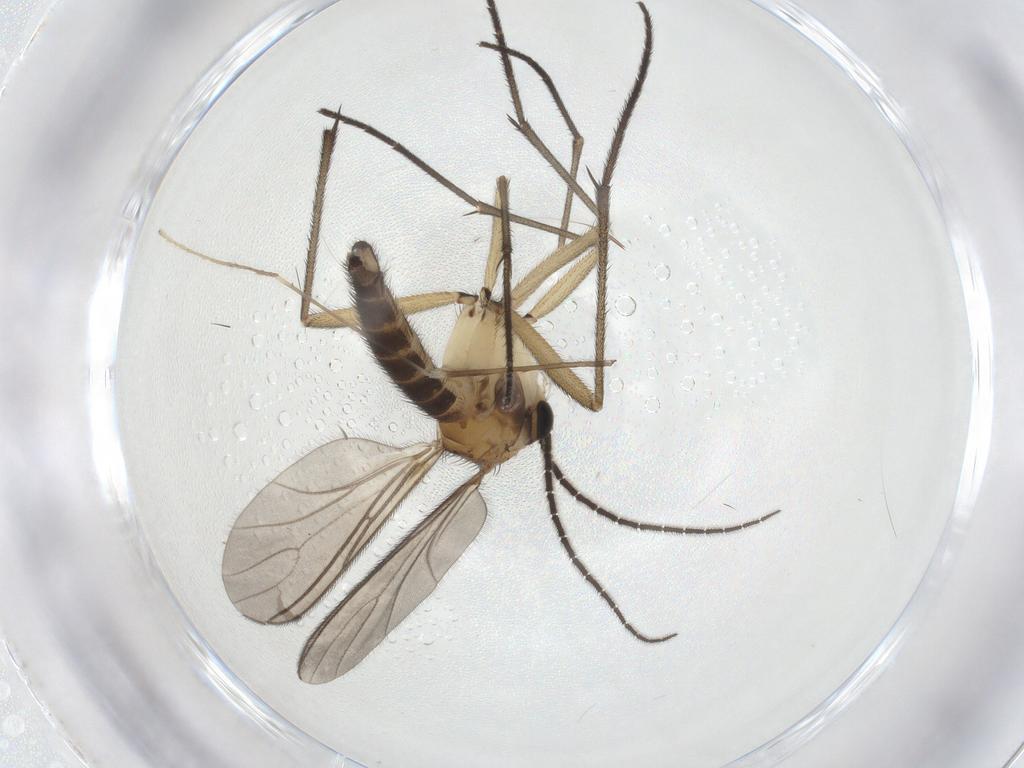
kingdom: Animalia
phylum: Arthropoda
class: Insecta
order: Diptera
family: Sciaridae
